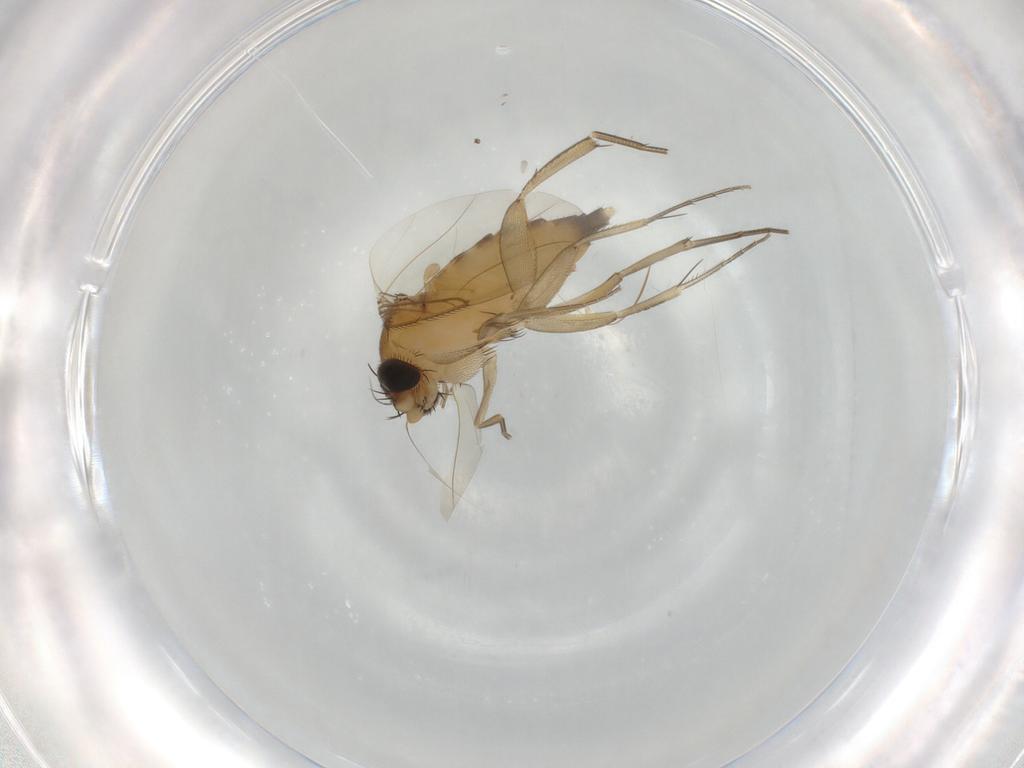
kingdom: Animalia
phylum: Arthropoda
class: Insecta
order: Diptera
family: Phoridae
